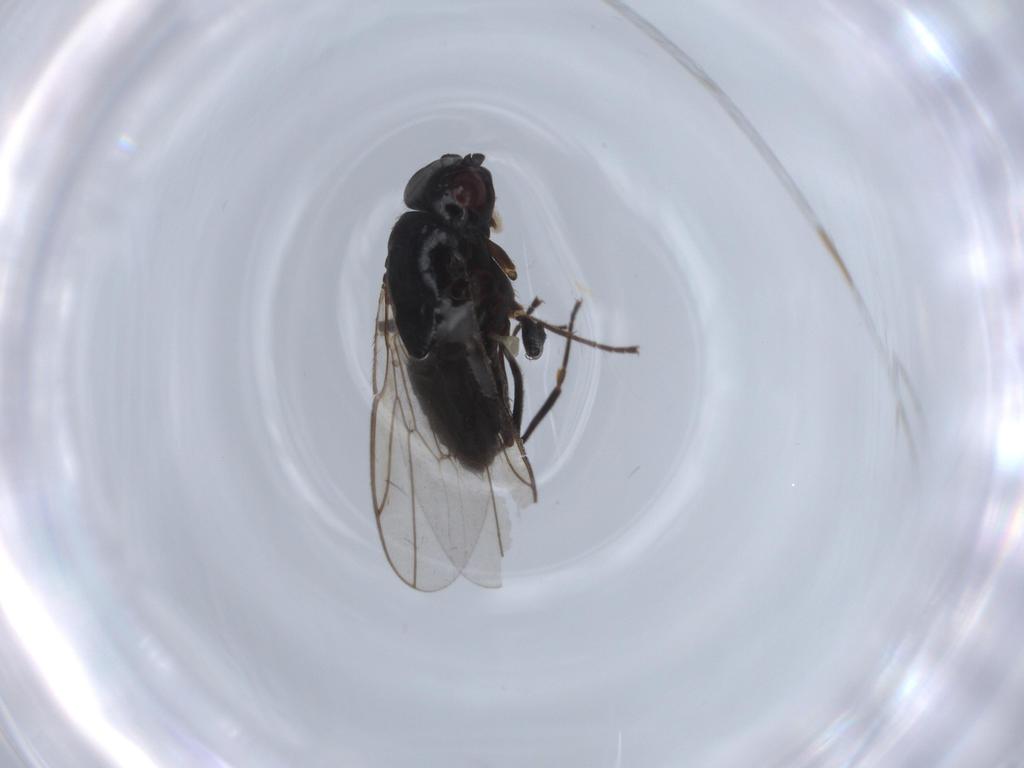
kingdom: Animalia
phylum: Arthropoda
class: Insecta
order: Diptera
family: Sphaeroceridae
